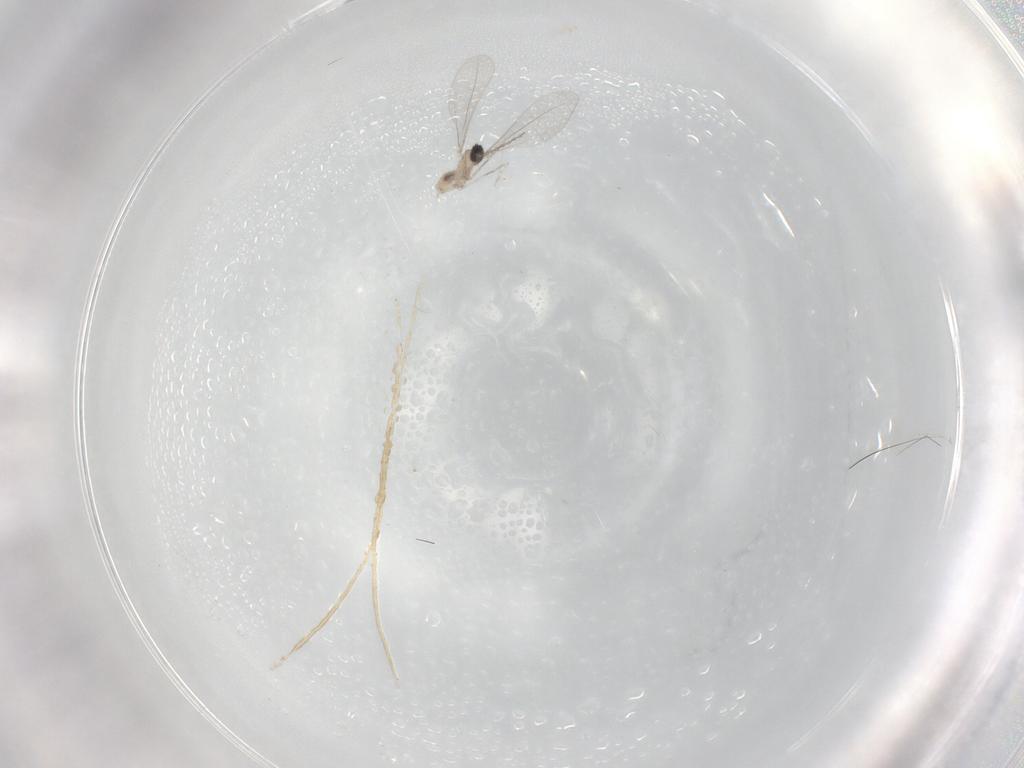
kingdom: Animalia
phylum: Arthropoda
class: Insecta
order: Diptera
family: Cecidomyiidae
